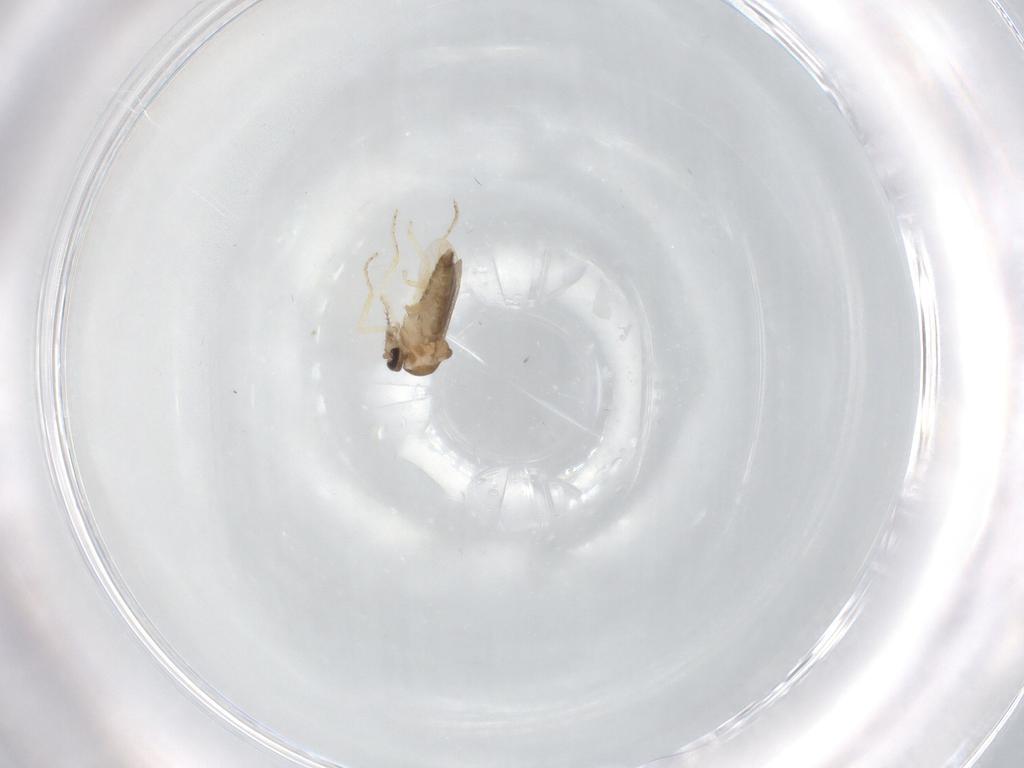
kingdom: Animalia
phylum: Arthropoda
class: Insecta
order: Diptera
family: Ceratopogonidae
